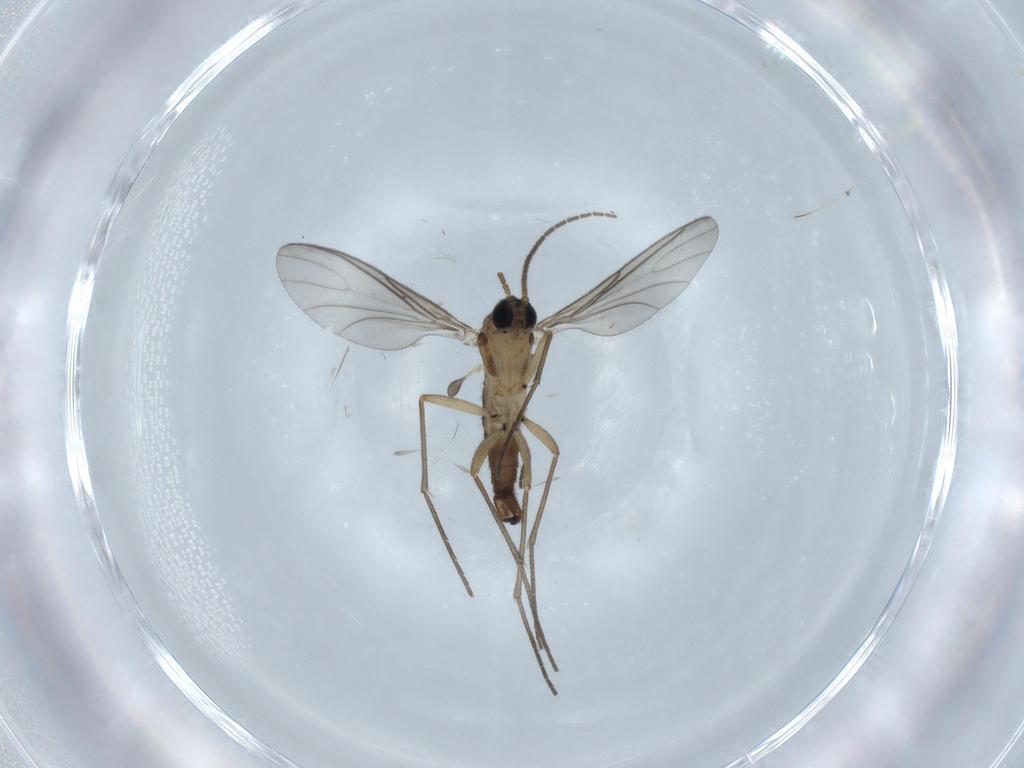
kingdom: Animalia
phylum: Arthropoda
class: Insecta
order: Diptera
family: Sciaridae
